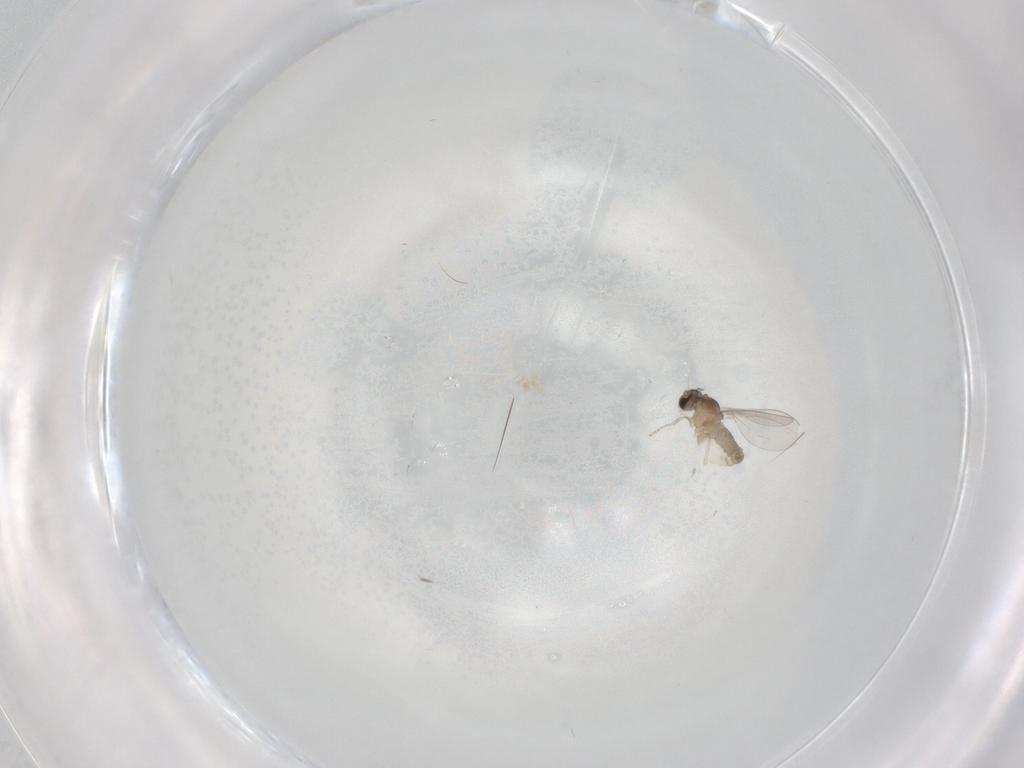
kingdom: Animalia
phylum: Arthropoda
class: Insecta
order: Diptera
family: Cecidomyiidae
